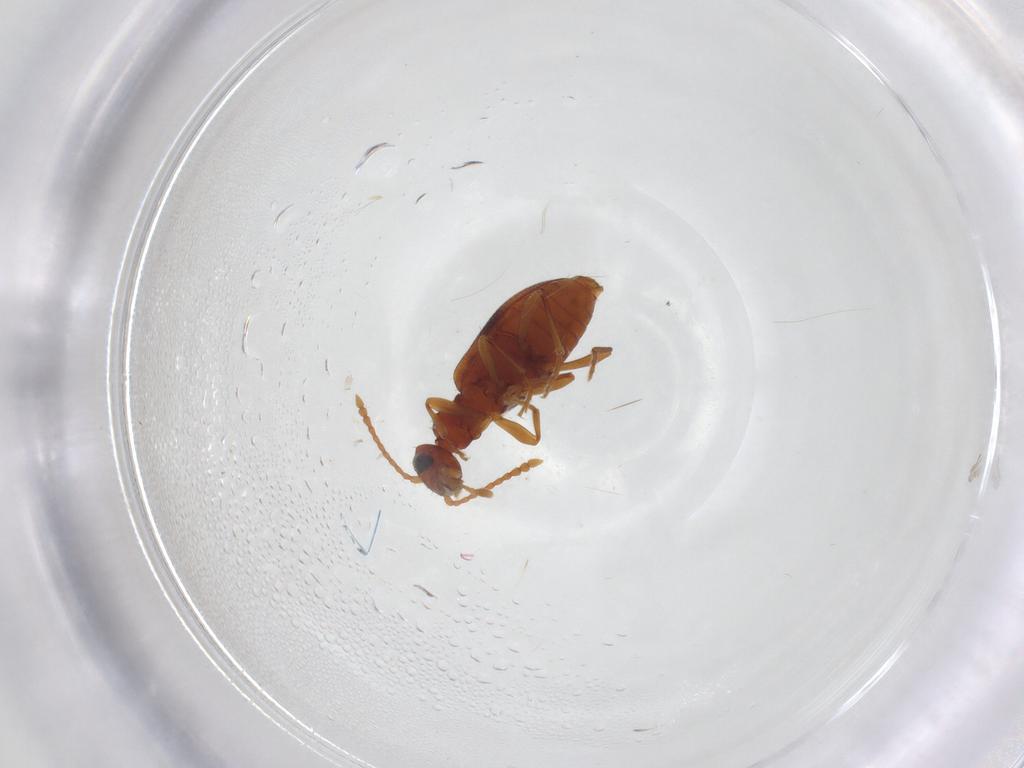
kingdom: Animalia
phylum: Arthropoda
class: Insecta
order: Coleoptera
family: Anthicidae
